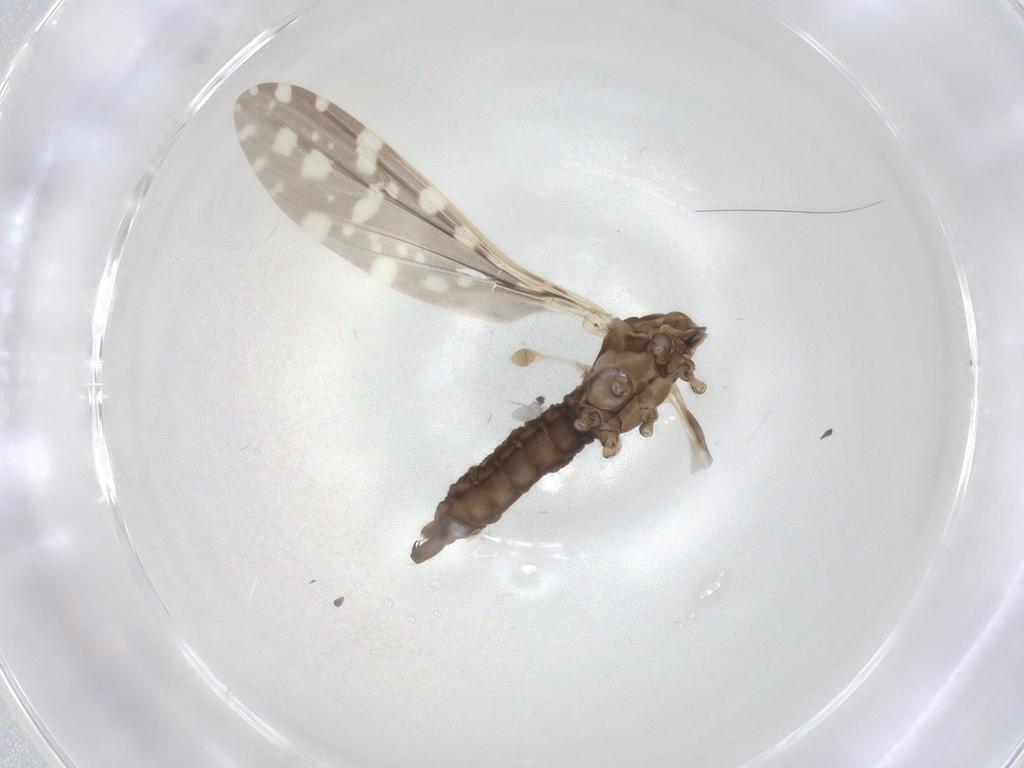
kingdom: Animalia
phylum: Arthropoda
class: Insecta
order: Diptera
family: Limoniidae
